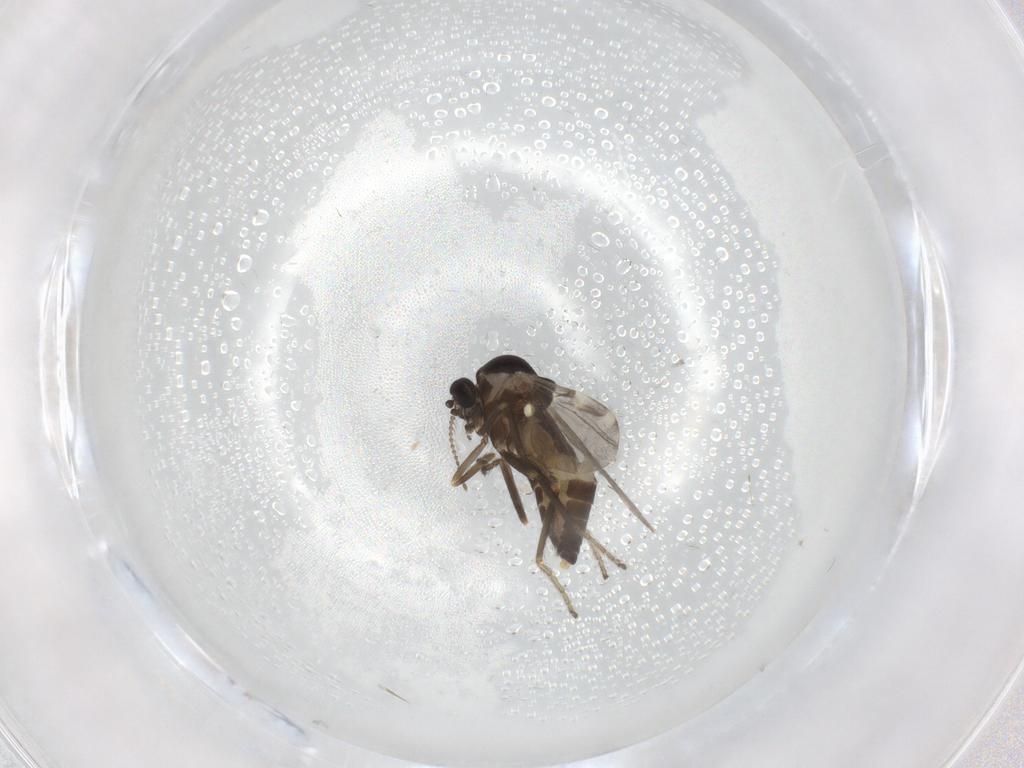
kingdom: Animalia
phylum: Arthropoda
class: Insecta
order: Diptera
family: Ceratopogonidae
